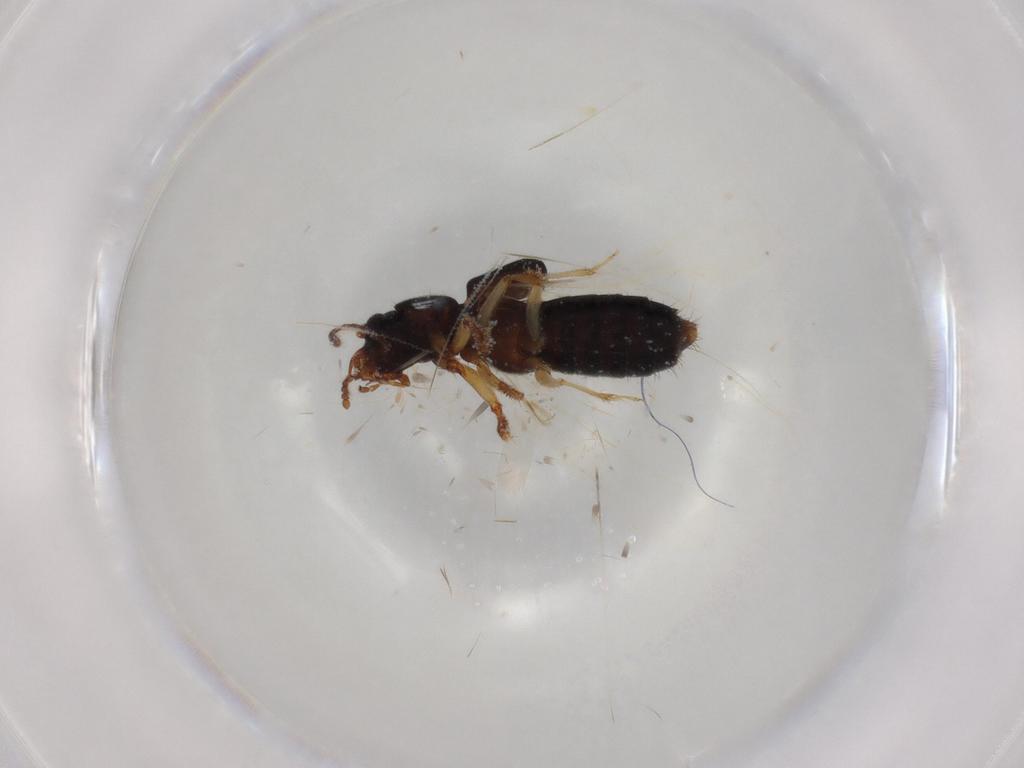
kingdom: Animalia
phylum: Arthropoda
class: Insecta
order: Coleoptera
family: Staphylinidae
